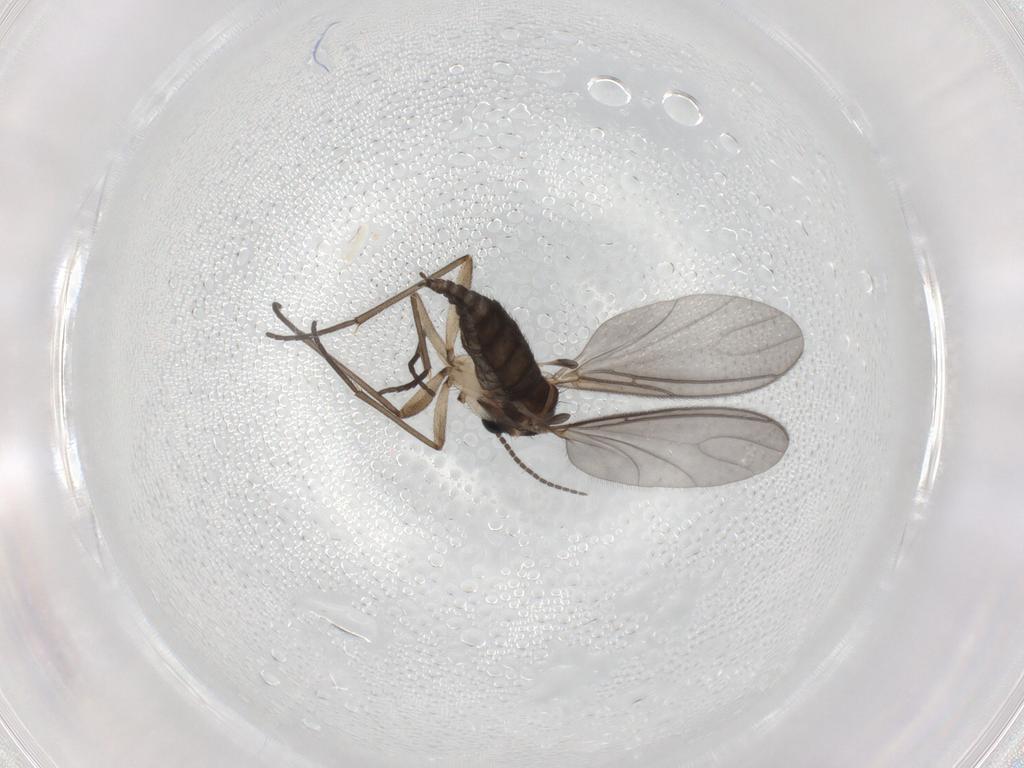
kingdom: Animalia
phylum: Arthropoda
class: Insecta
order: Diptera
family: Sciaridae
